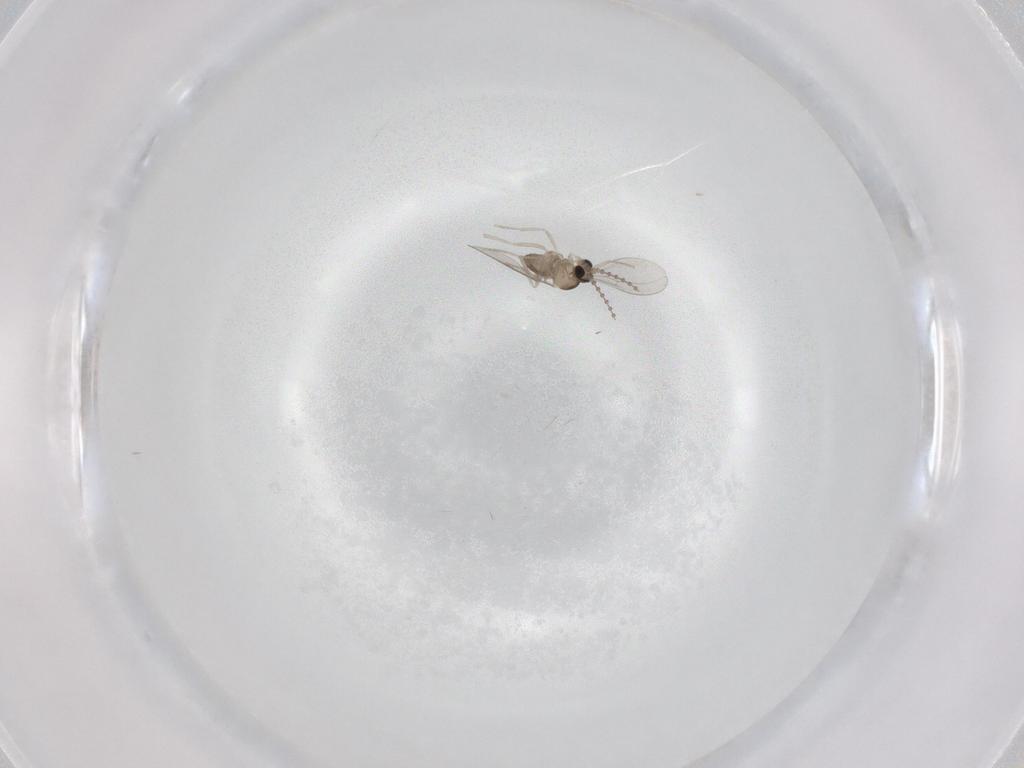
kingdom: Animalia
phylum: Arthropoda
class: Insecta
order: Diptera
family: Cecidomyiidae
